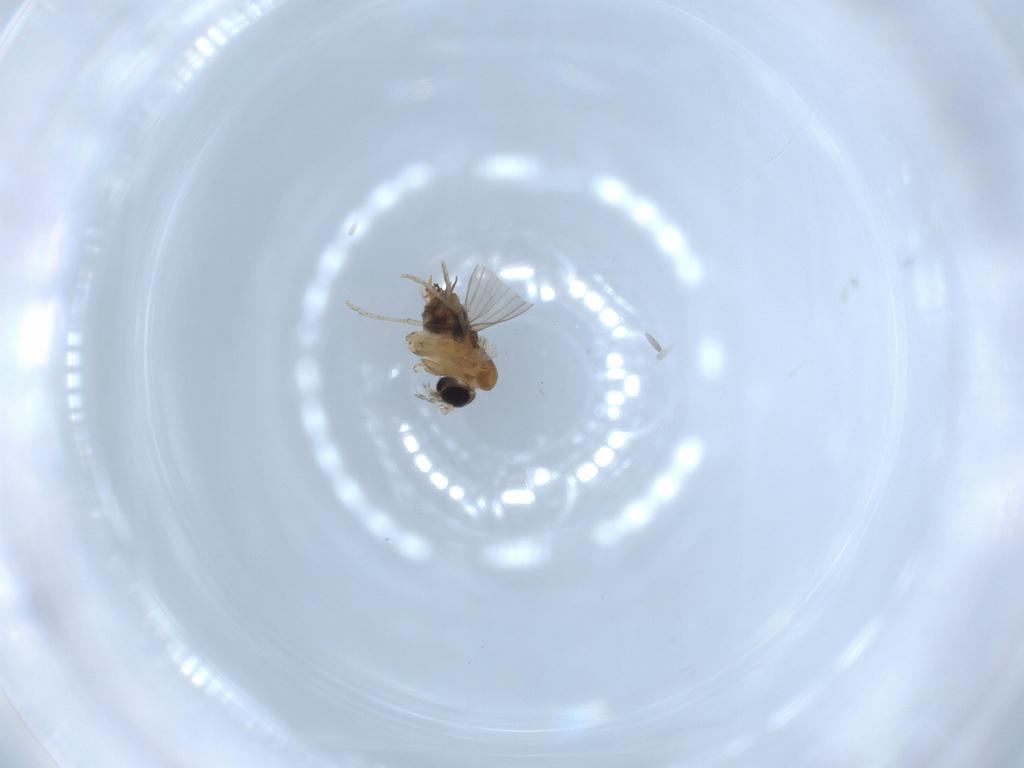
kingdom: Animalia
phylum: Arthropoda
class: Insecta
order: Diptera
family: Psychodidae
